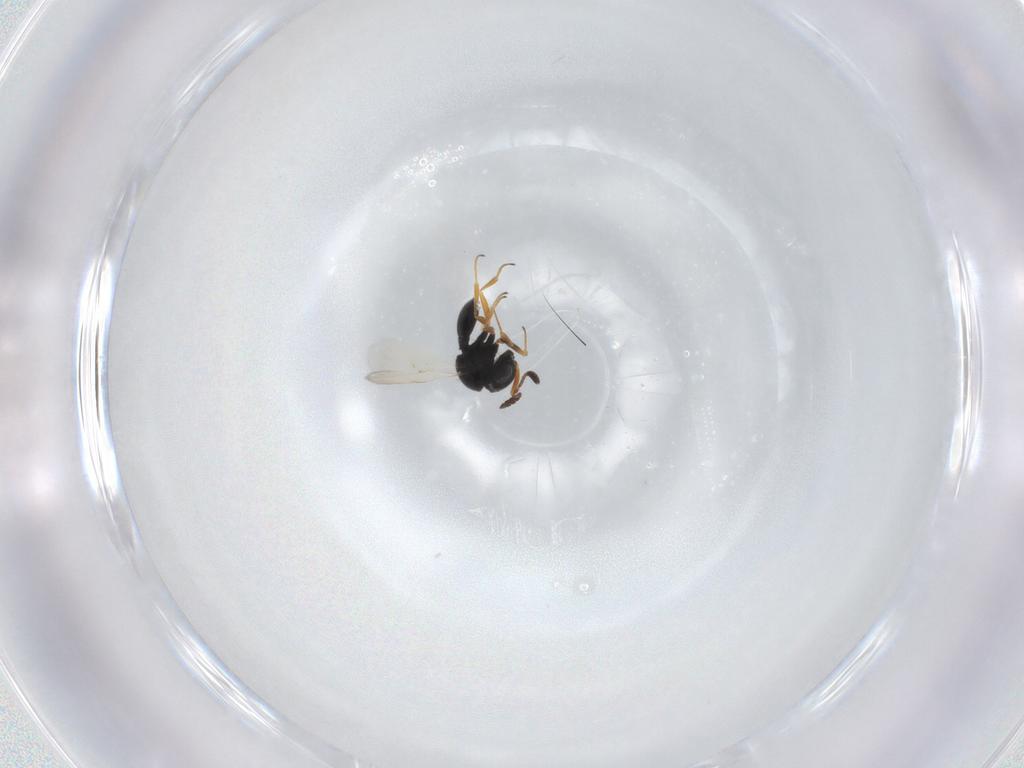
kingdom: Animalia
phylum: Arthropoda
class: Insecta
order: Hymenoptera
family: Scelionidae
